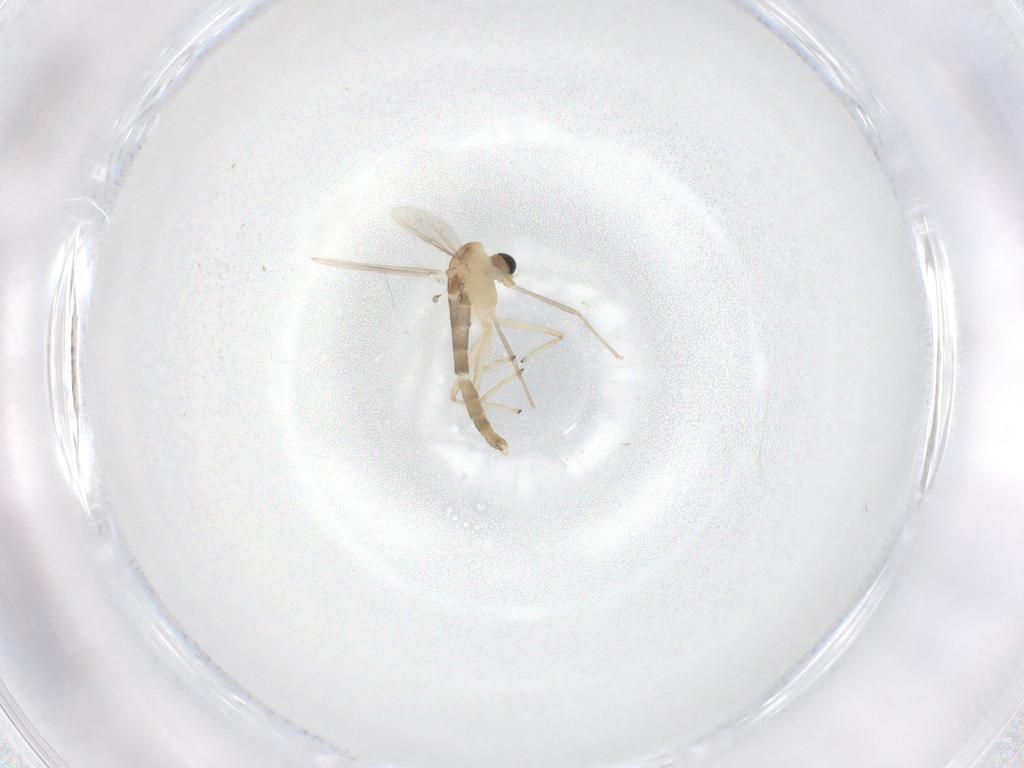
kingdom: Animalia
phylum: Arthropoda
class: Insecta
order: Diptera
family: Chironomidae
